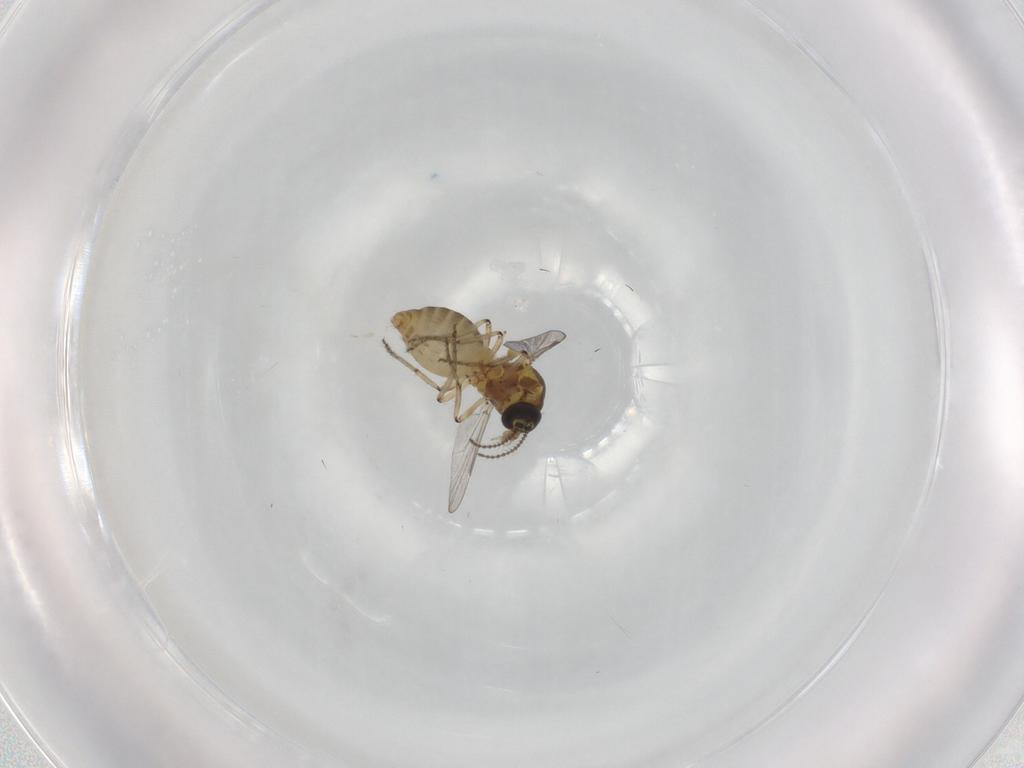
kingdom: Animalia
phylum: Arthropoda
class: Insecta
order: Diptera
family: Ceratopogonidae
